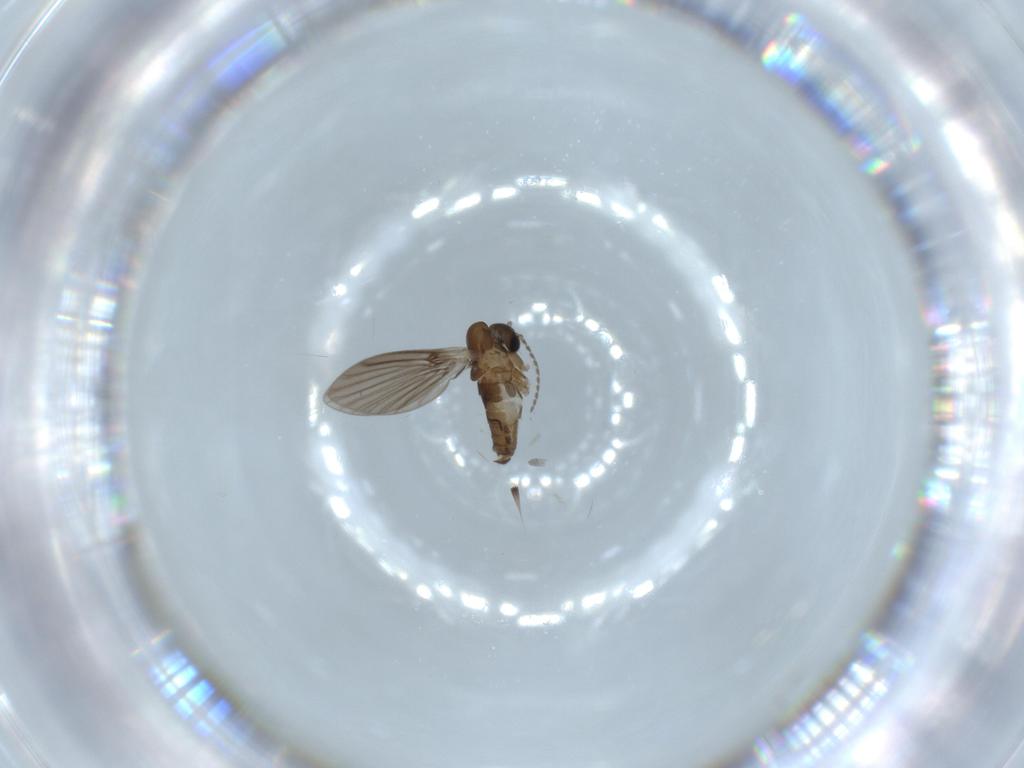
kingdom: Animalia
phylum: Arthropoda
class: Insecta
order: Diptera
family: Psychodidae
